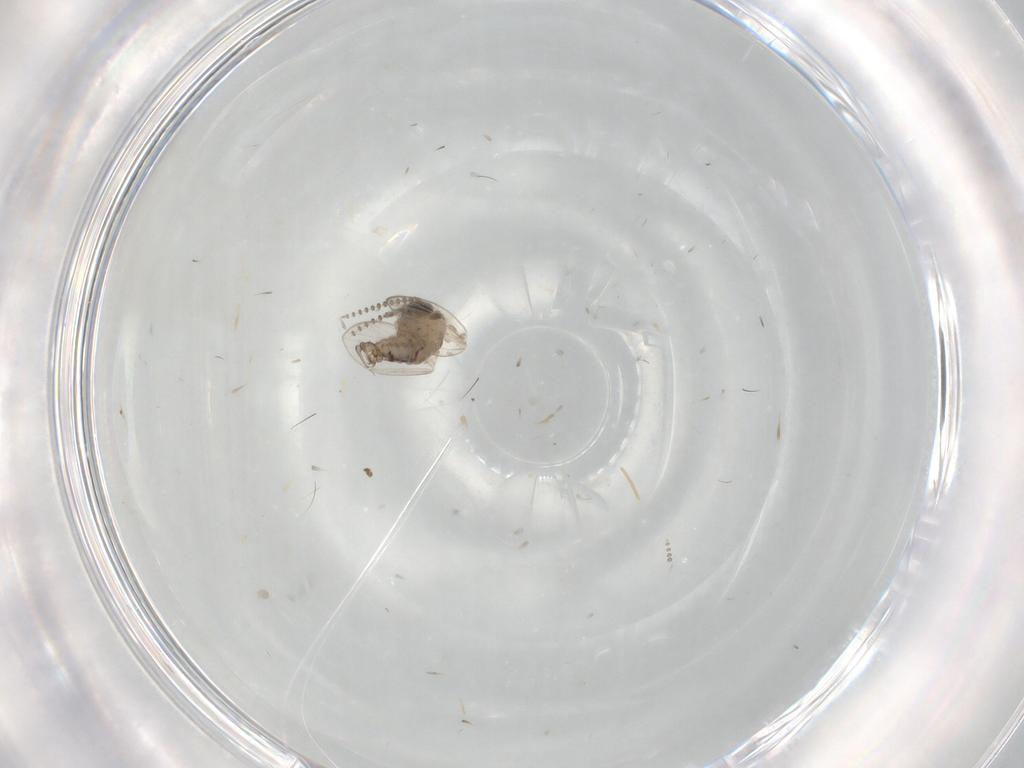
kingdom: Animalia
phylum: Arthropoda
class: Insecta
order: Diptera
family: Psychodidae
